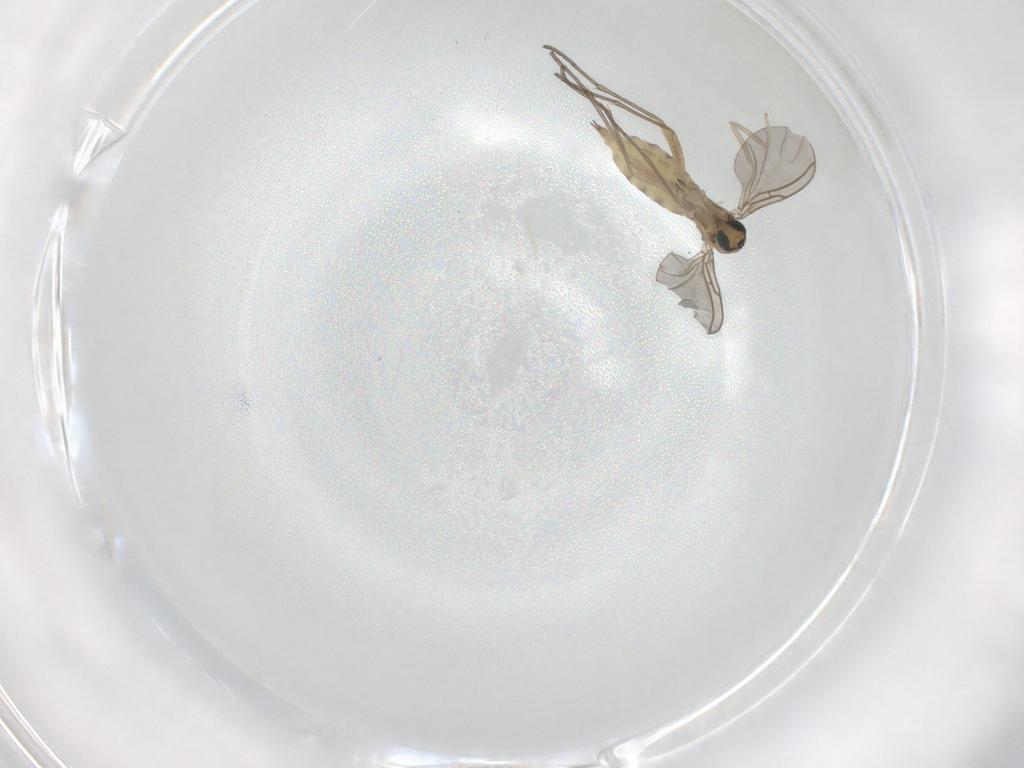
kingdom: Animalia
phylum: Arthropoda
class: Insecta
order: Diptera
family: Sciaridae
